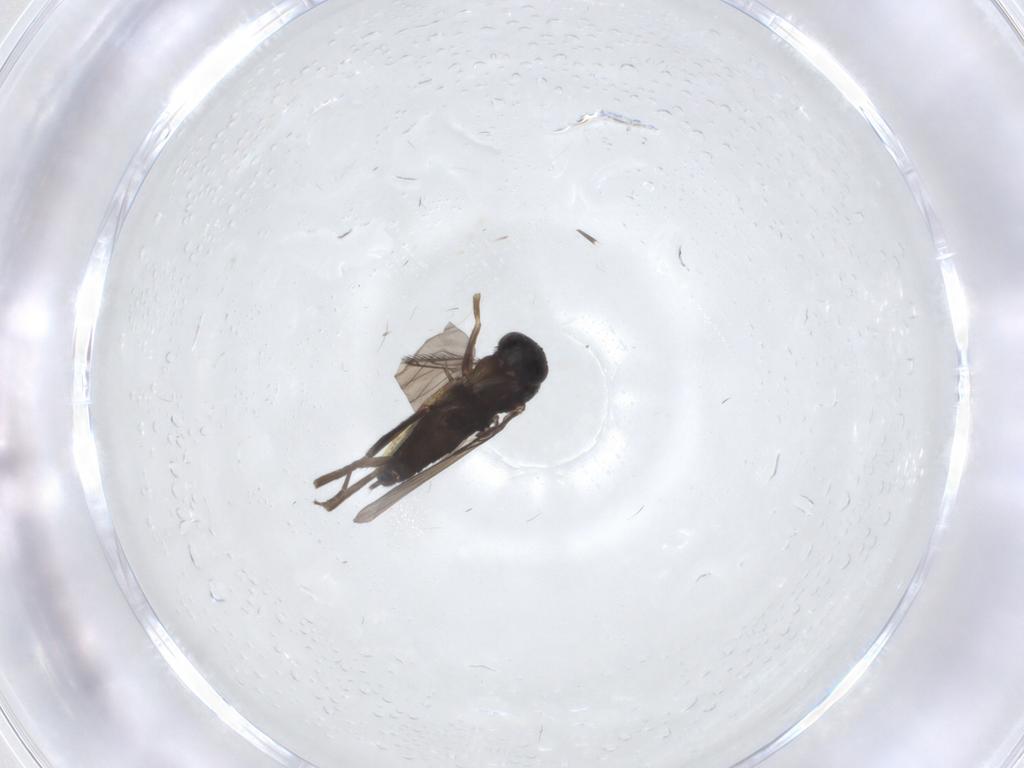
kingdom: Animalia
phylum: Arthropoda
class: Insecta
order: Diptera
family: Phoridae
